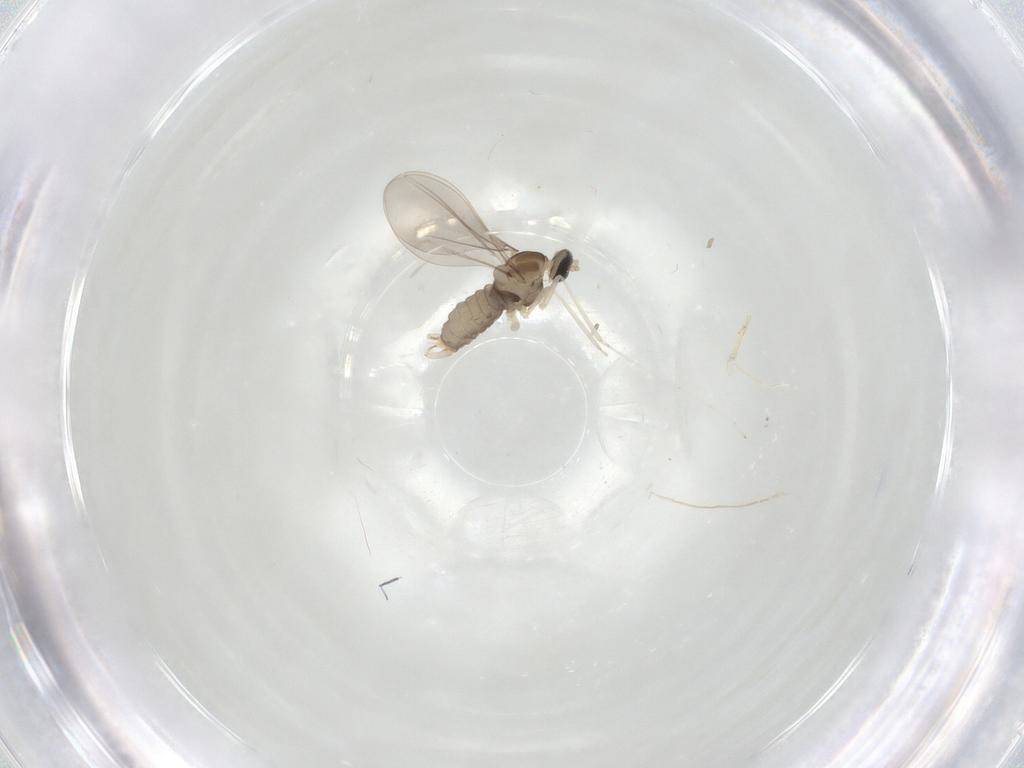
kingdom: Animalia
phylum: Arthropoda
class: Insecta
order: Diptera
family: Cecidomyiidae
